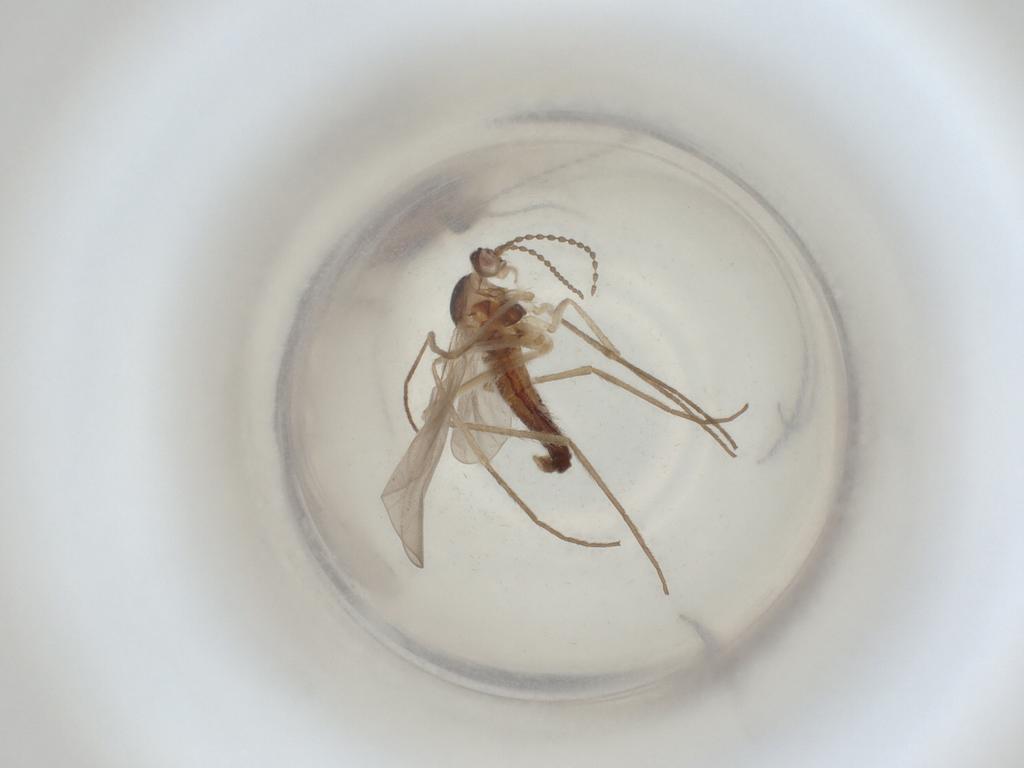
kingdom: Animalia
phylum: Arthropoda
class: Insecta
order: Diptera
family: Cecidomyiidae
